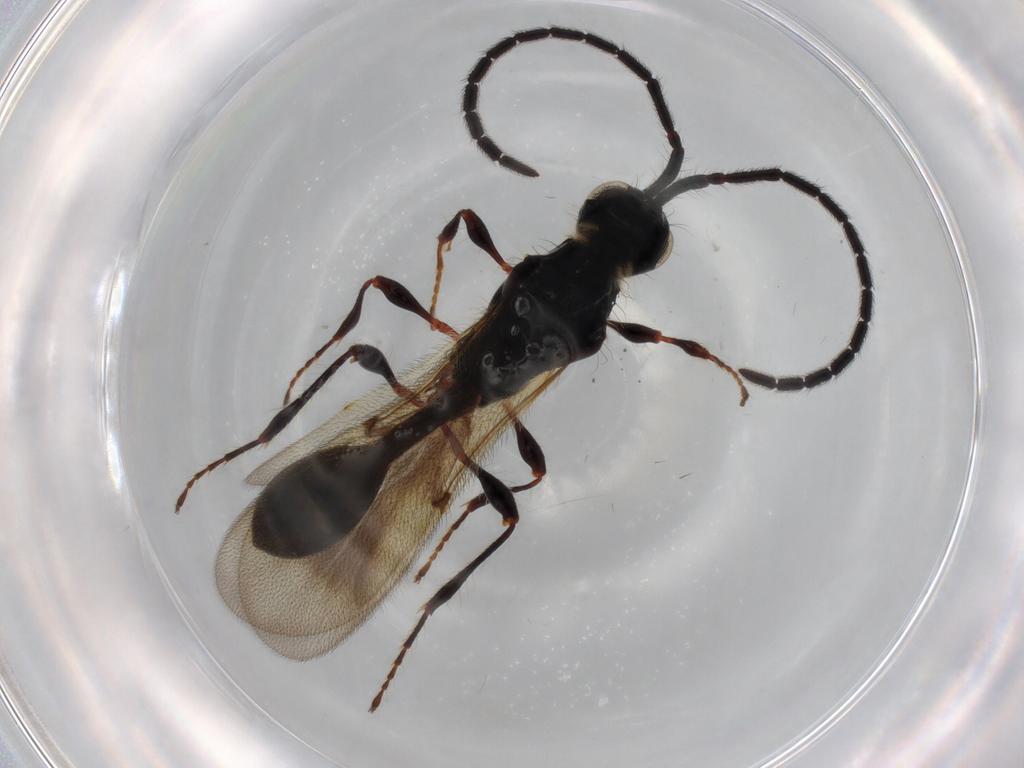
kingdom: Animalia
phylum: Arthropoda
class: Insecta
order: Hymenoptera
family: Diapriidae
